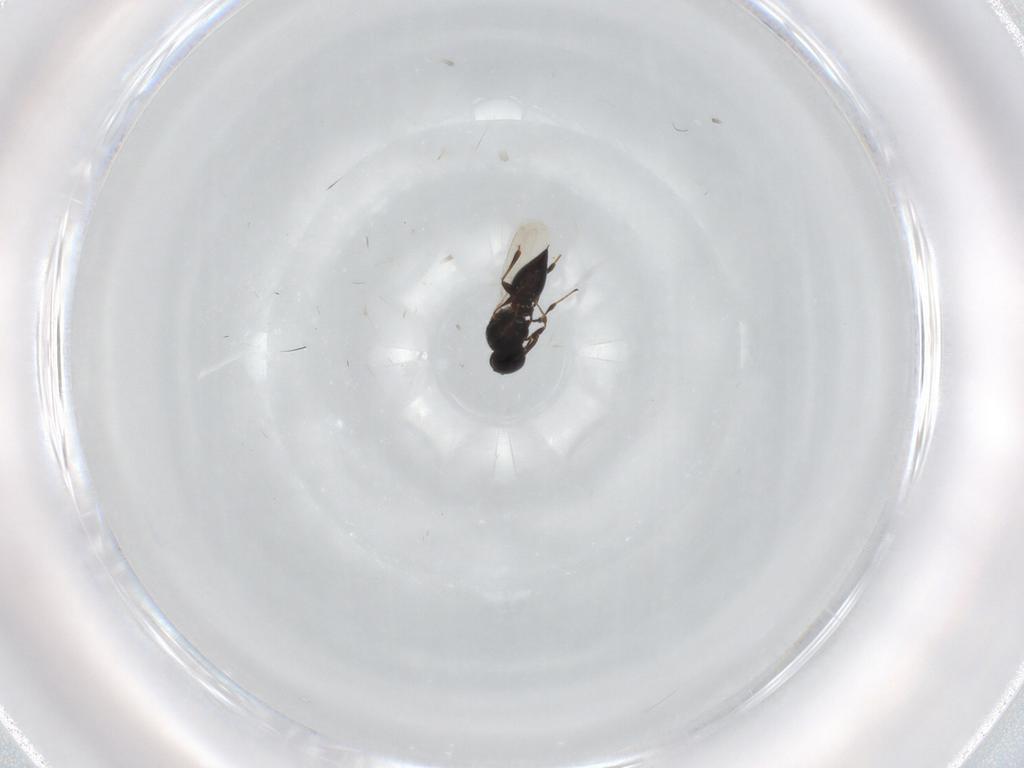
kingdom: Animalia
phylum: Arthropoda
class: Insecta
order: Hymenoptera
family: Platygastridae
